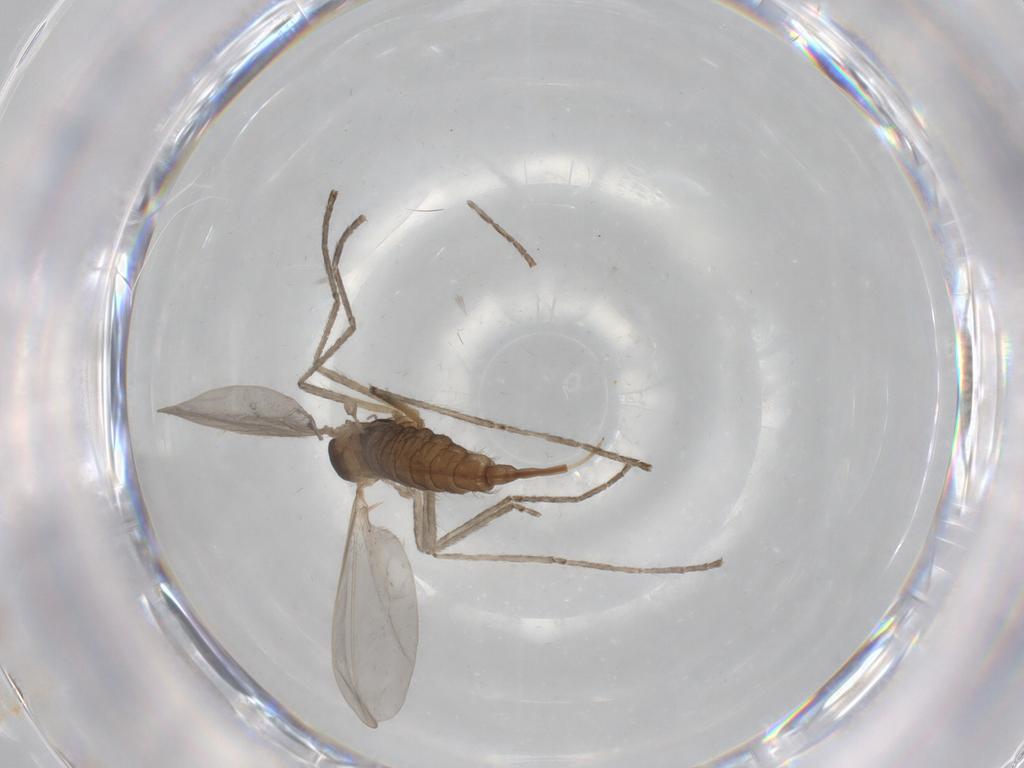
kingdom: Animalia
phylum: Arthropoda
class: Insecta
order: Diptera
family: Cecidomyiidae
